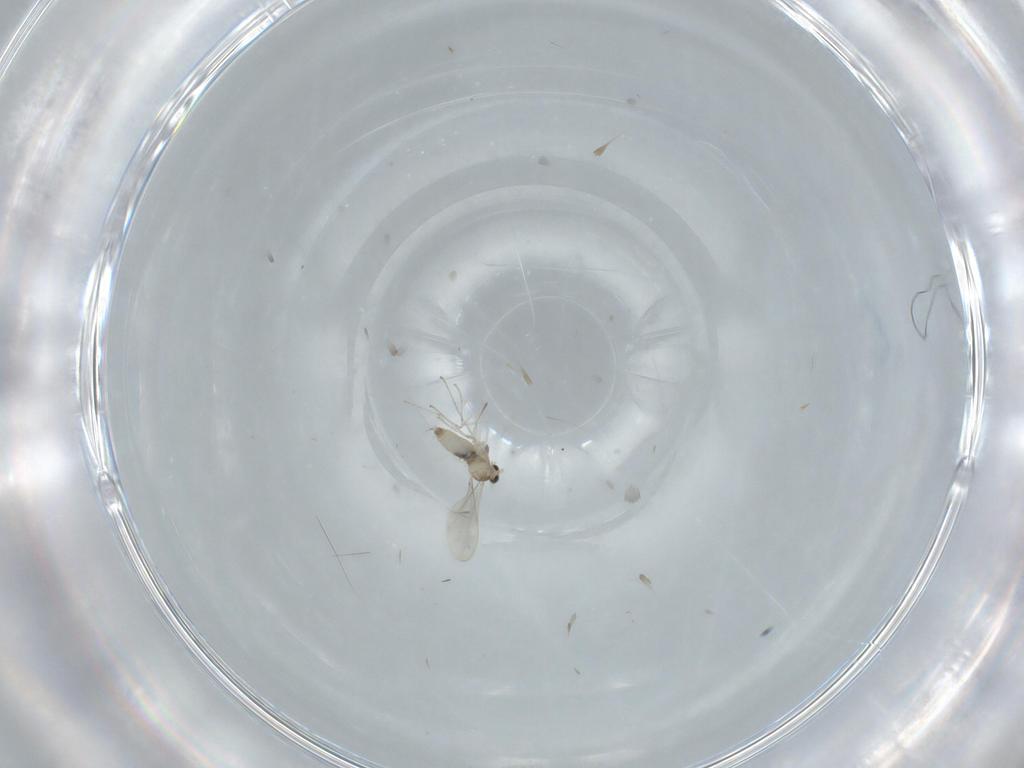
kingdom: Animalia
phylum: Arthropoda
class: Insecta
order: Diptera
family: Cecidomyiidae
